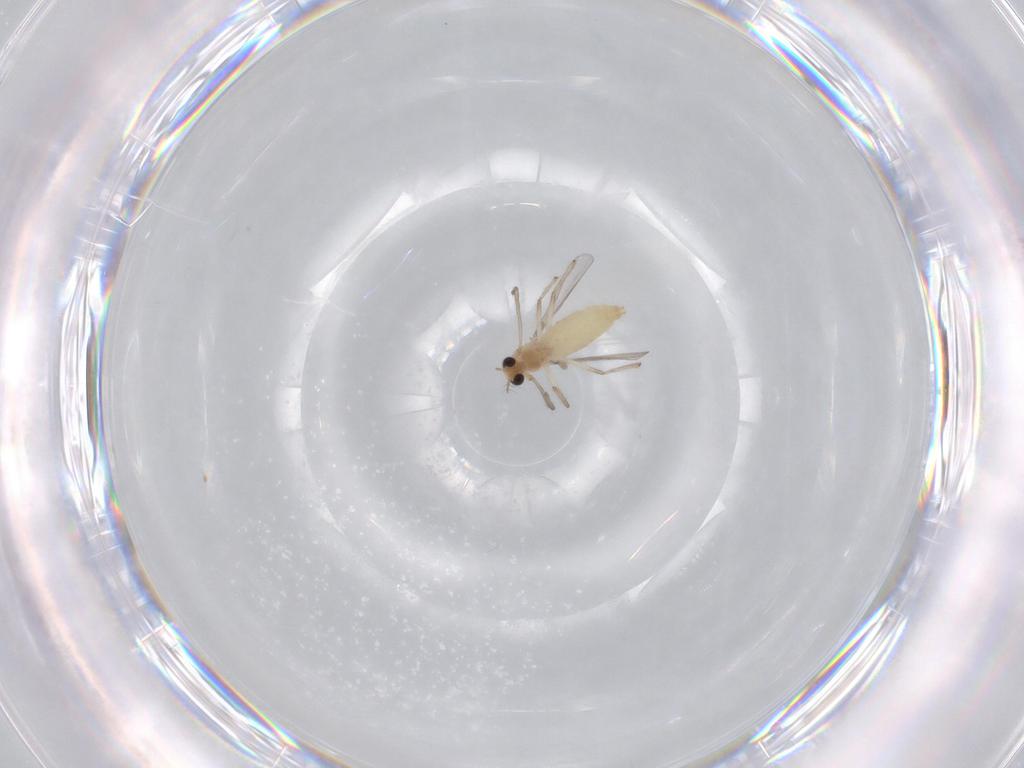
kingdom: Animalia
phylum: Arthropoda
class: Insecta
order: Diptera
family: Chironomidae
